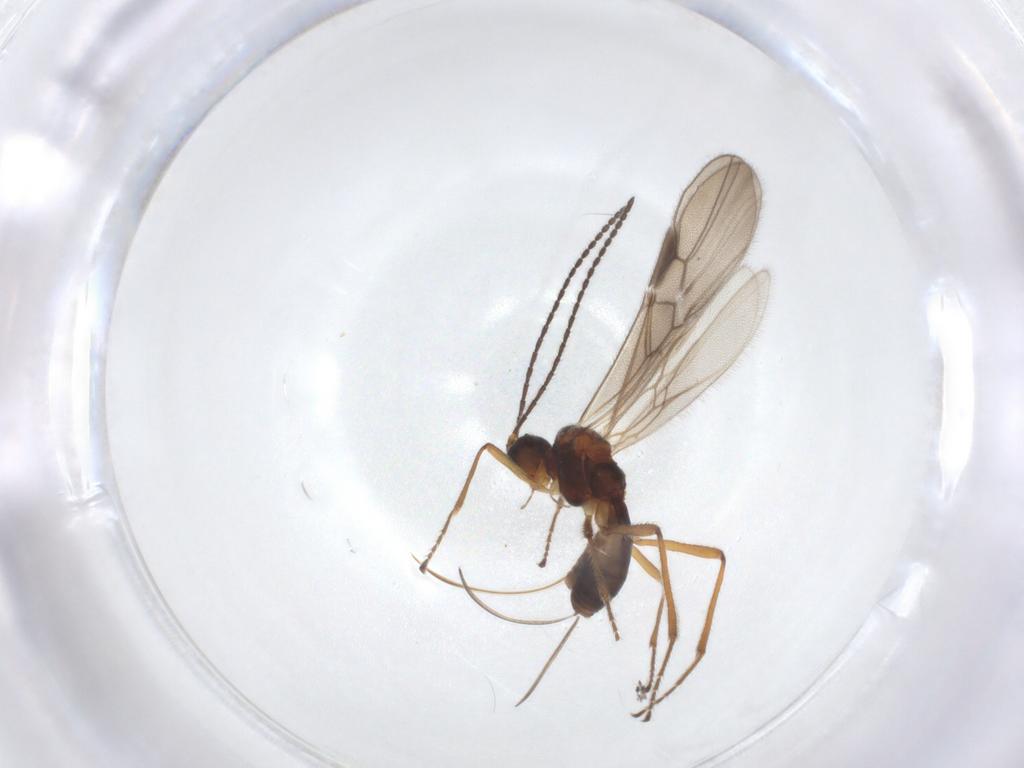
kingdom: Animalia
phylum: Arthropoda
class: Insecta
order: Hymenoptera
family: Braconidae
